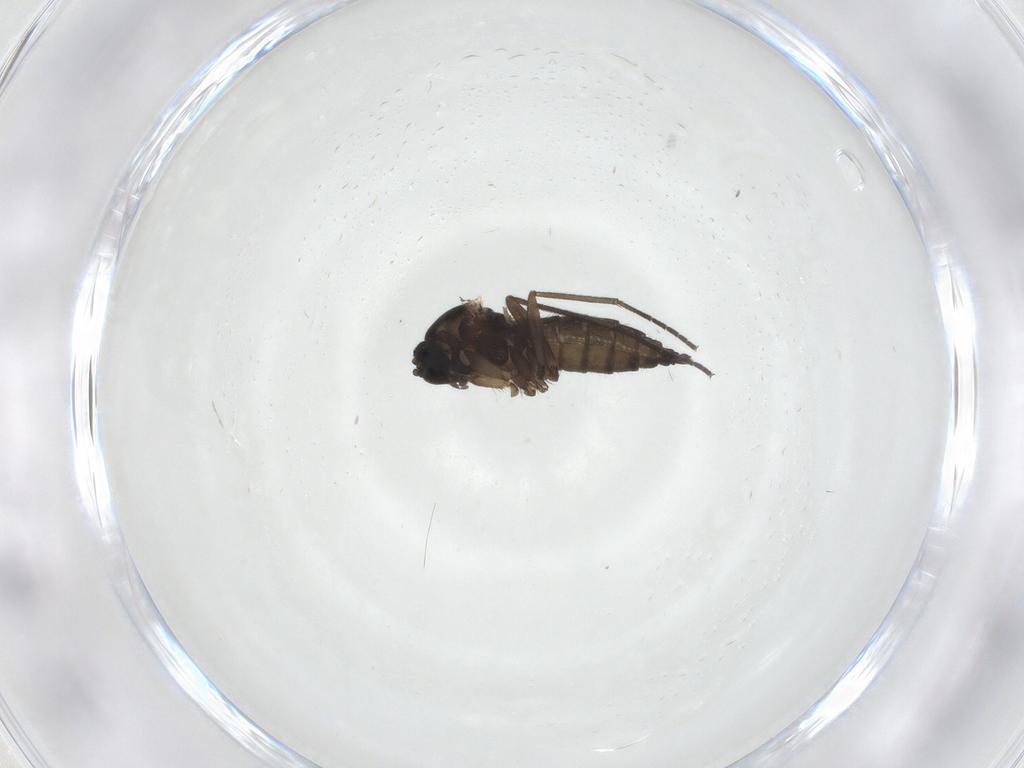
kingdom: Animalia
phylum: Arthropoda
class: Insecta
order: Diptera
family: Sciaridae
